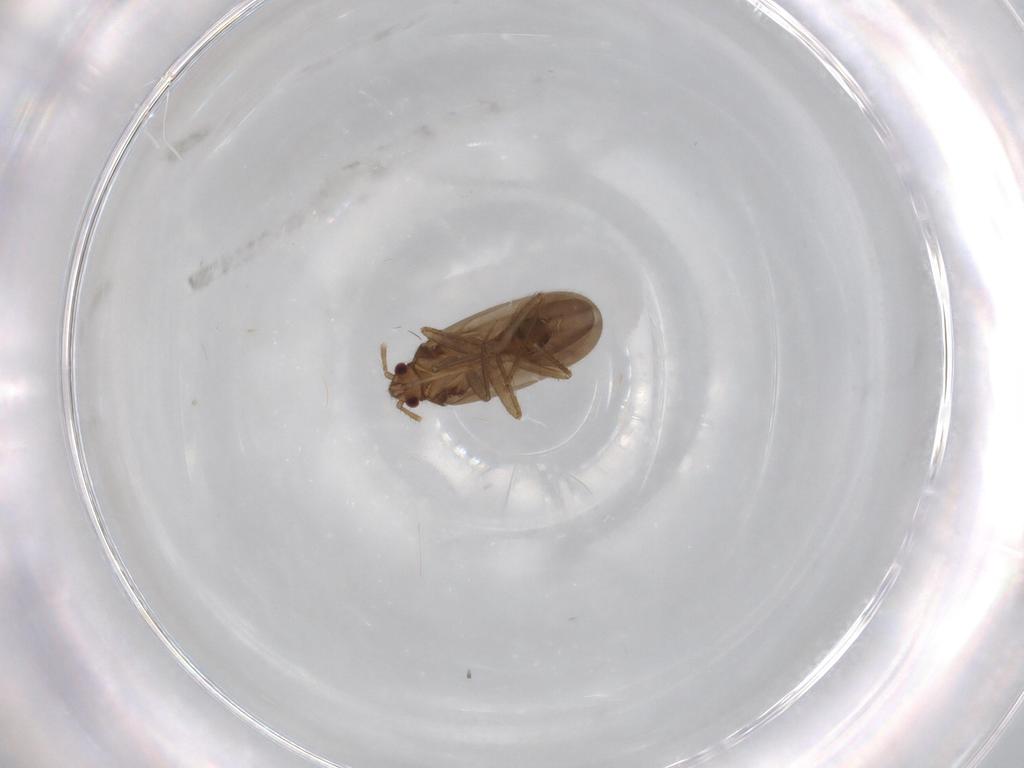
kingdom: Animalia
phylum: Arthropoda
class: Insecta
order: Hemiptera
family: Ceratocombidae
